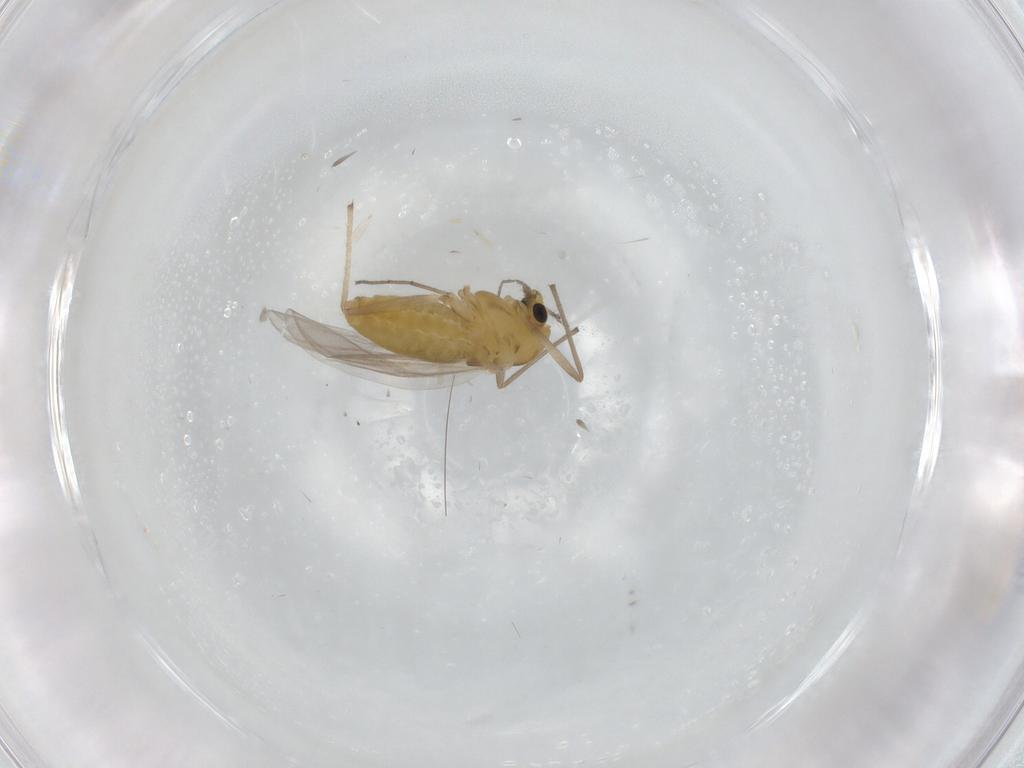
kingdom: Animalia
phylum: Arthropoda
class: Insecta
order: Diptera
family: Chironomidae
